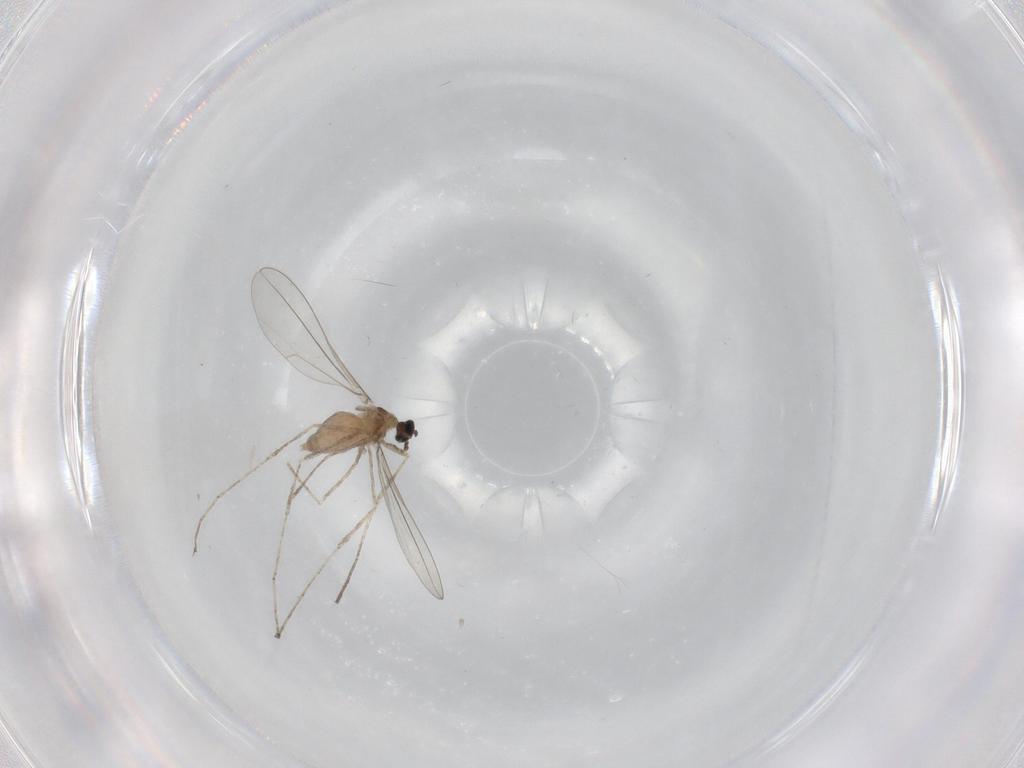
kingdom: Animalia
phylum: Arthropoda
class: Insecta
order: Diptera
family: Cecidomyiidae
